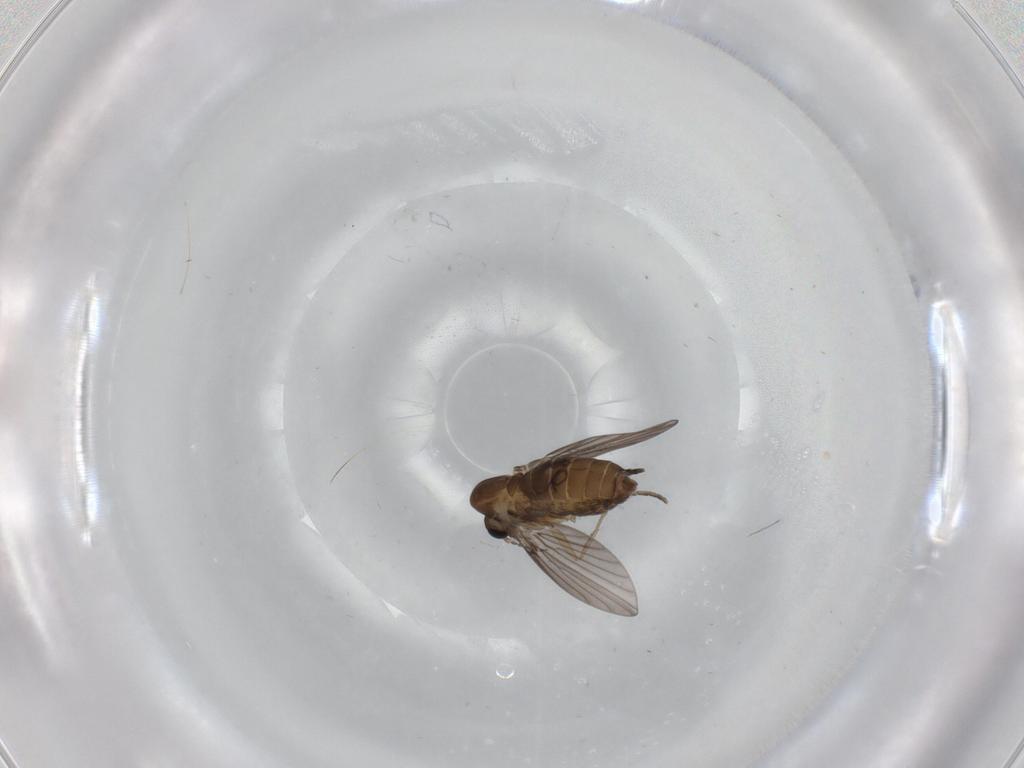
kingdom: Animalia
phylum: Arthropoda
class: Insecta
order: Diptera
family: Psychodidae
